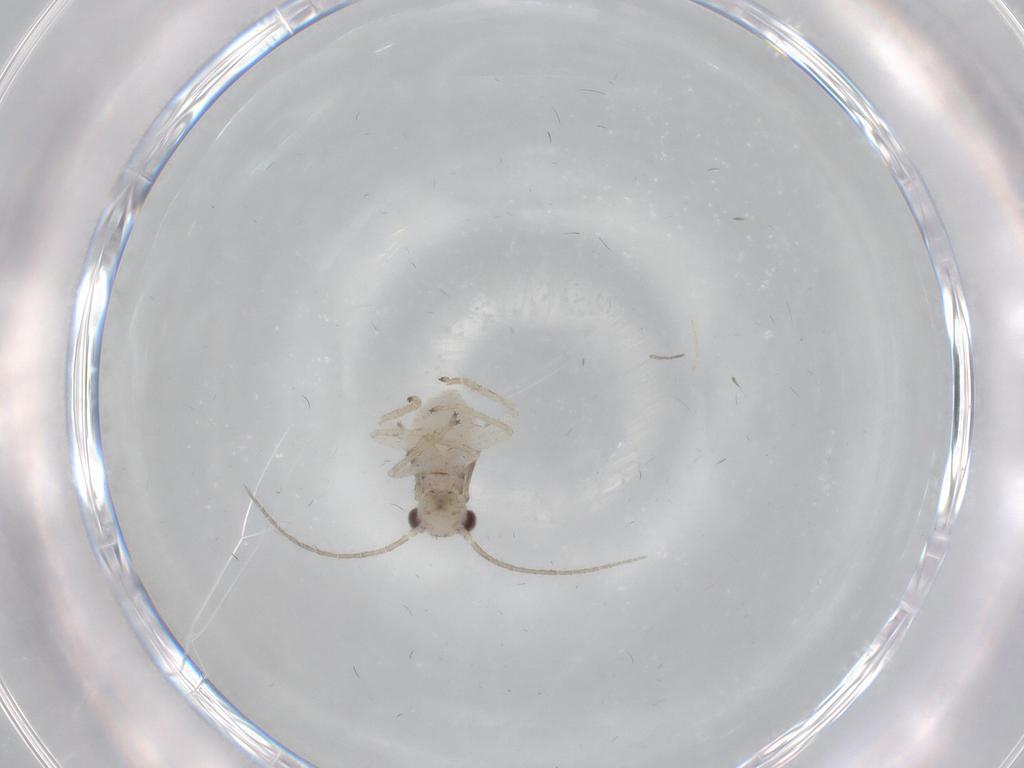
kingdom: Animalia
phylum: Arthropoda
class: Insecta
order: Psocodea
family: Caeciliusidae
